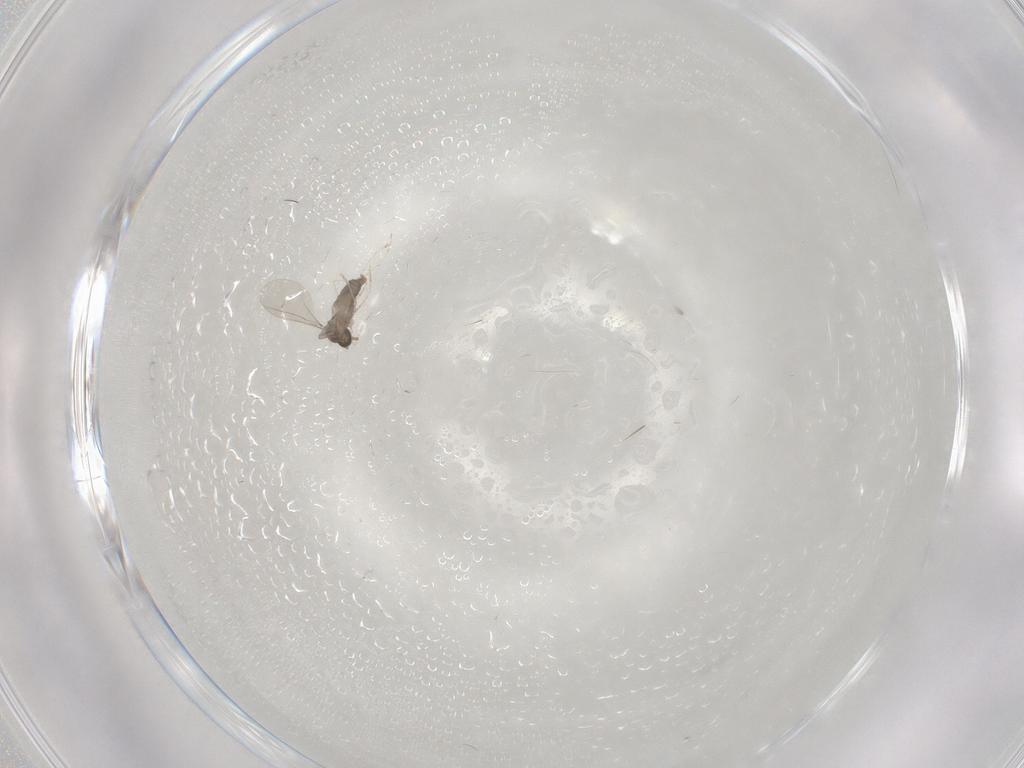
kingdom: Animalia
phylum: Arthropoda
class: Insecta
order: Diptera
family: Cecidomyiidae
